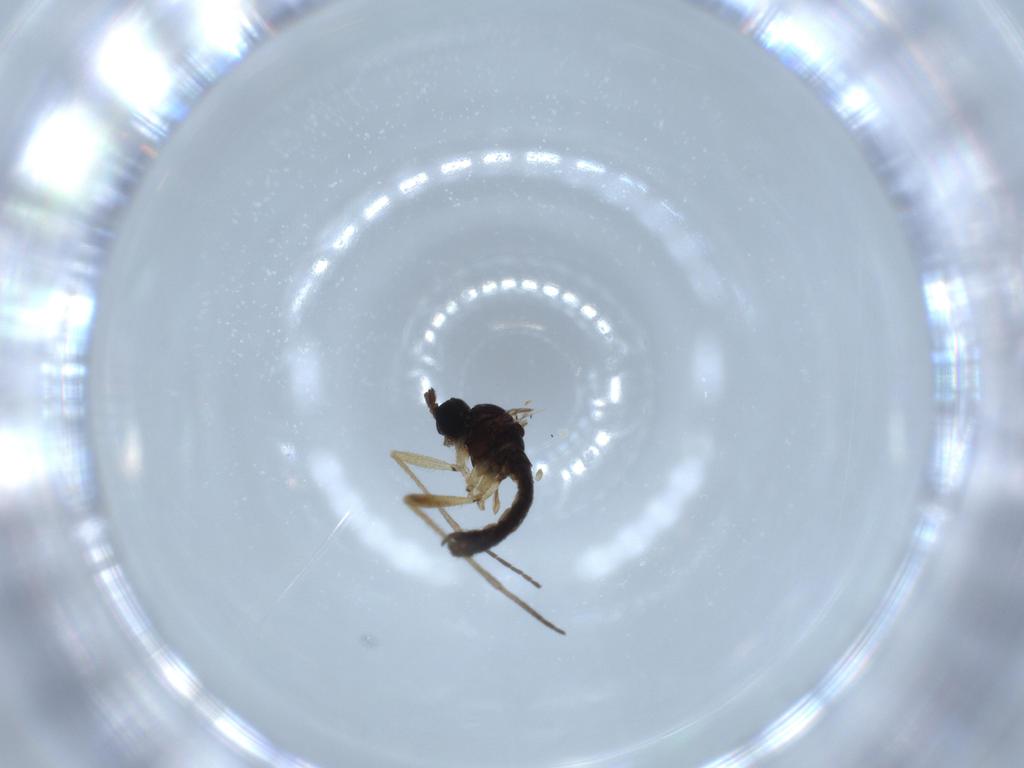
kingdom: Animalia
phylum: Arthropoda
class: Insecta
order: Diptera
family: Sciaridae
